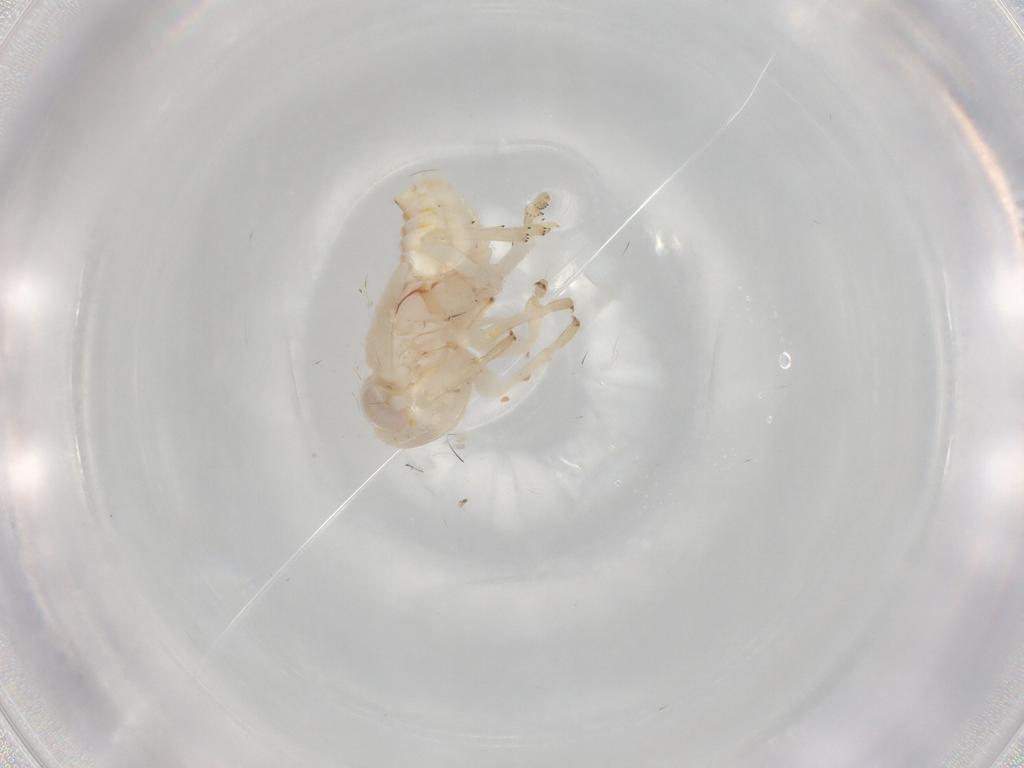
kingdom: Animalia
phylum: Arthropoda
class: Insecta
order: Hemiptera
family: Nogodinidae
